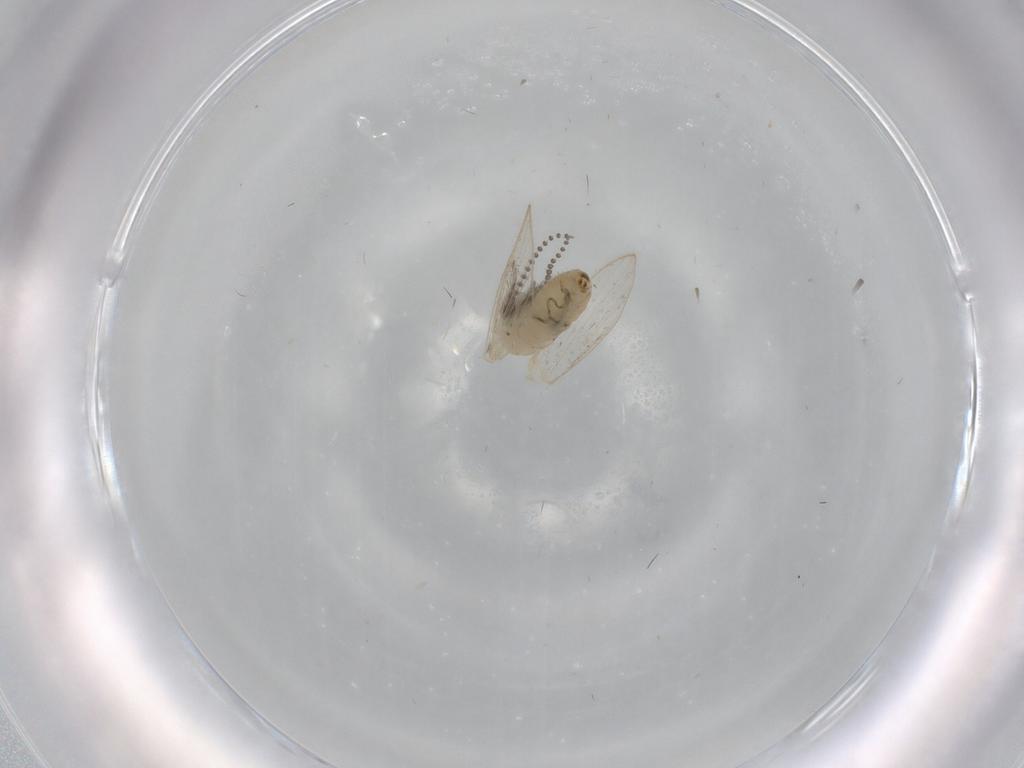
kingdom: Animalia
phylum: Arthropoda
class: Insecta
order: Diptera
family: Psychodidae
